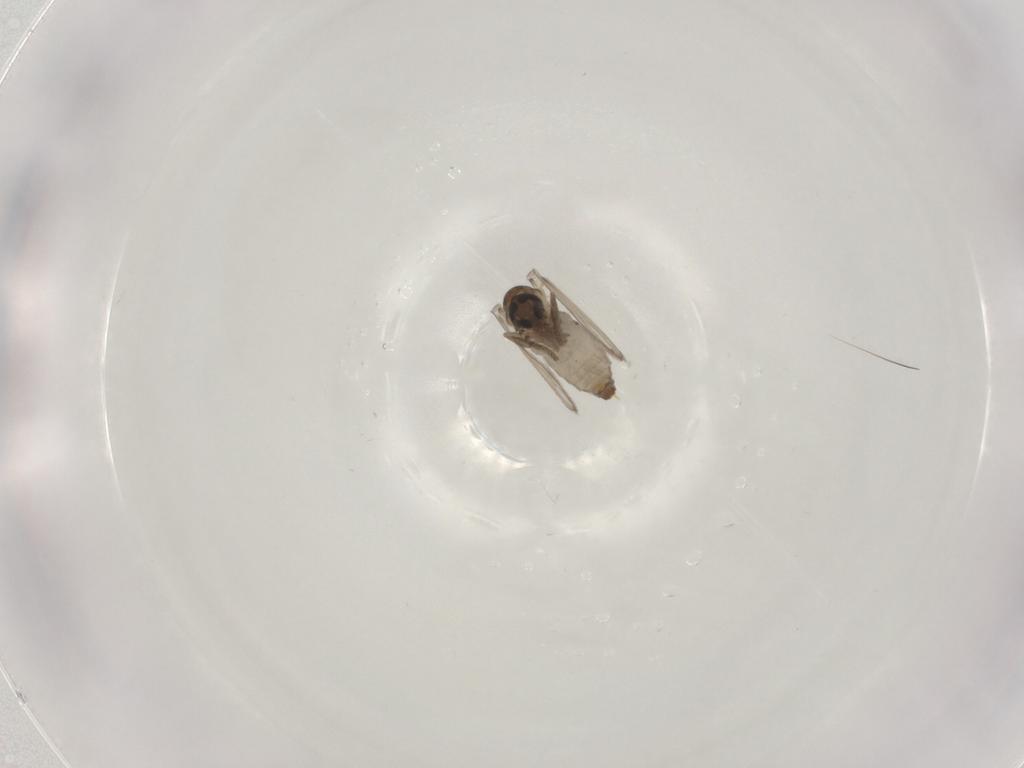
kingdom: Animalia
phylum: Arthropoda
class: Insecta
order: Diptera
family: Psychodidae
